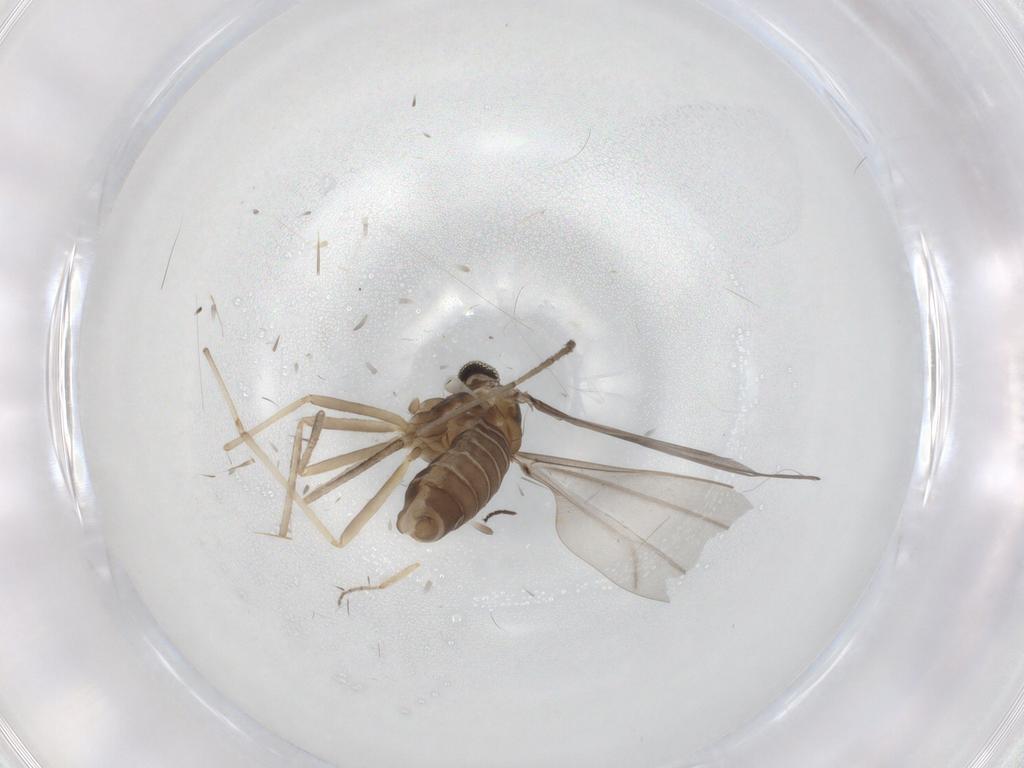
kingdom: Animalia
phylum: Arthropoda
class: Insecta
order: Diptera
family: Cecidomyiidae
